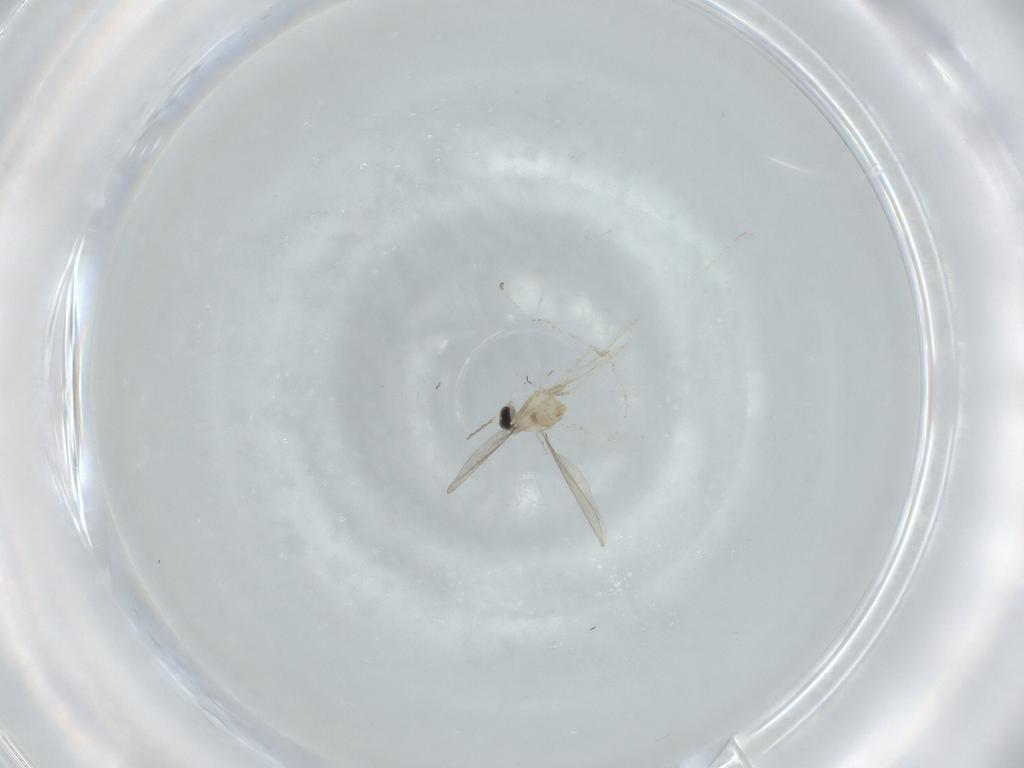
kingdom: Animalia
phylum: Arthropoda
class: Insecta
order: Diptera
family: Cecidomyiidae
